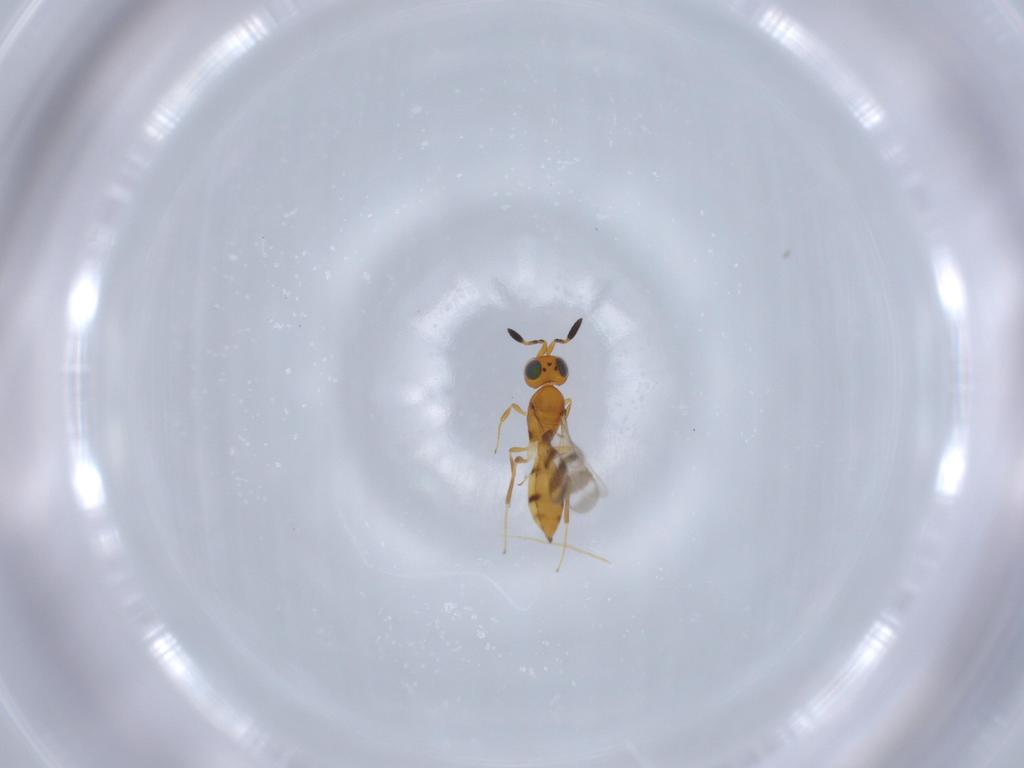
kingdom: Animalia
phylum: Arthropoda
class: Insecta
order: Hymenoptera
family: Scelionidae
